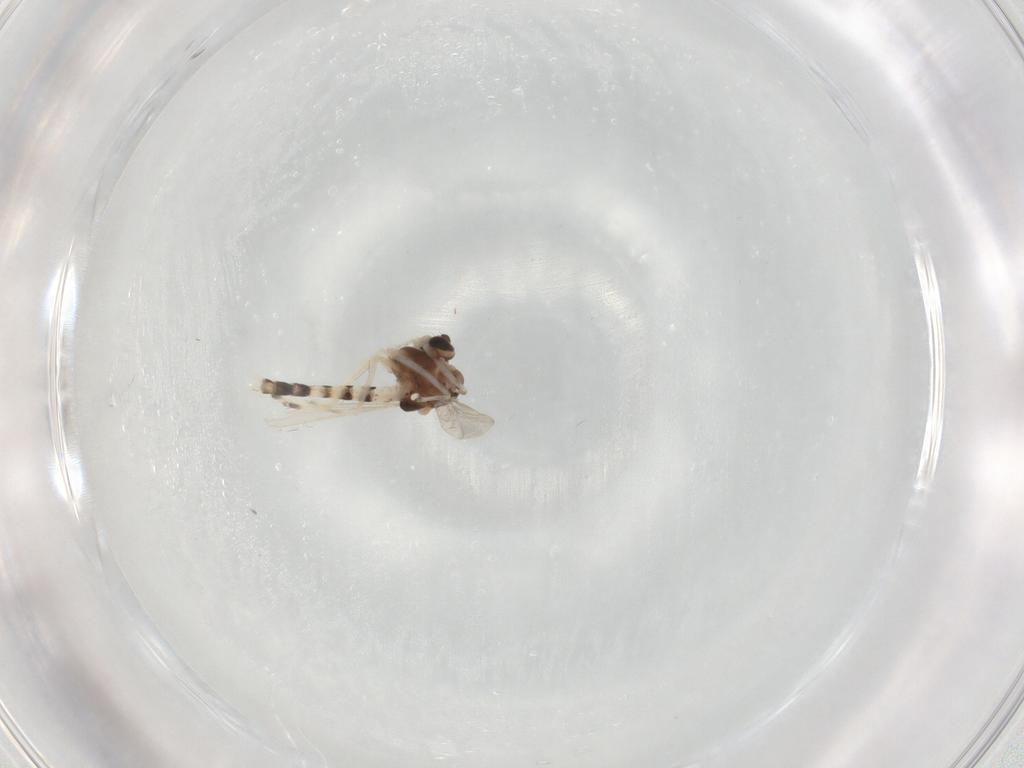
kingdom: Animalia
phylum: Arthropoda
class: Insecta
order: Diptera
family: Chironomidae
